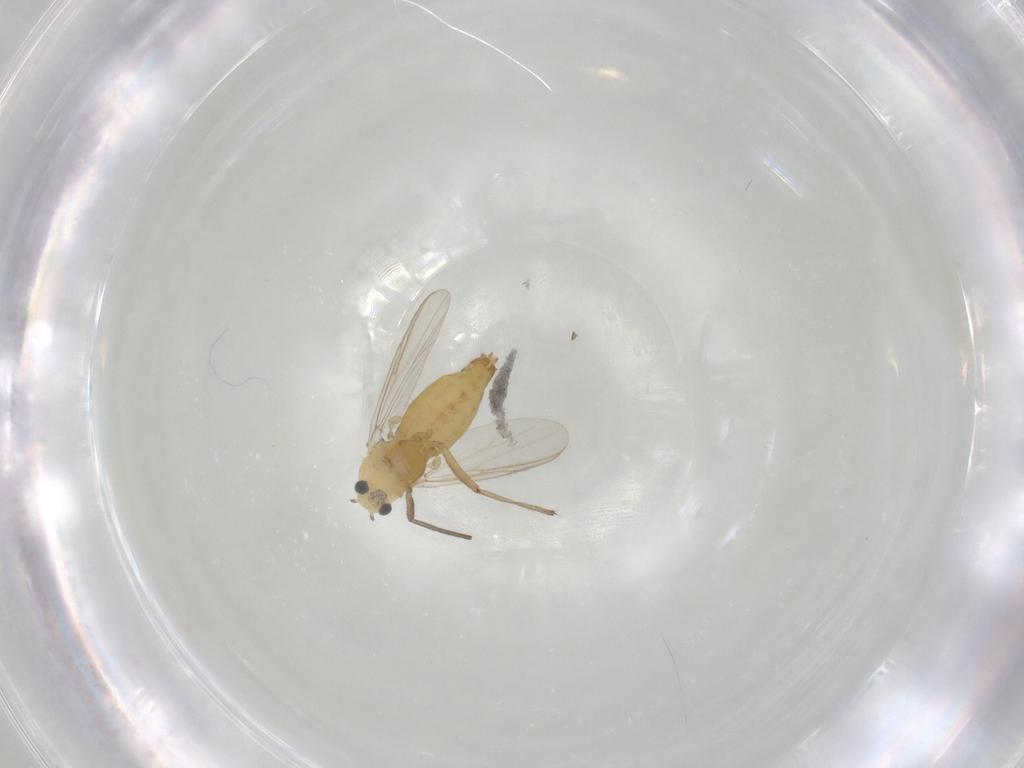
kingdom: Animalia
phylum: Arthropoda
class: Insecta
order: Diptera
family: Chironomidae
